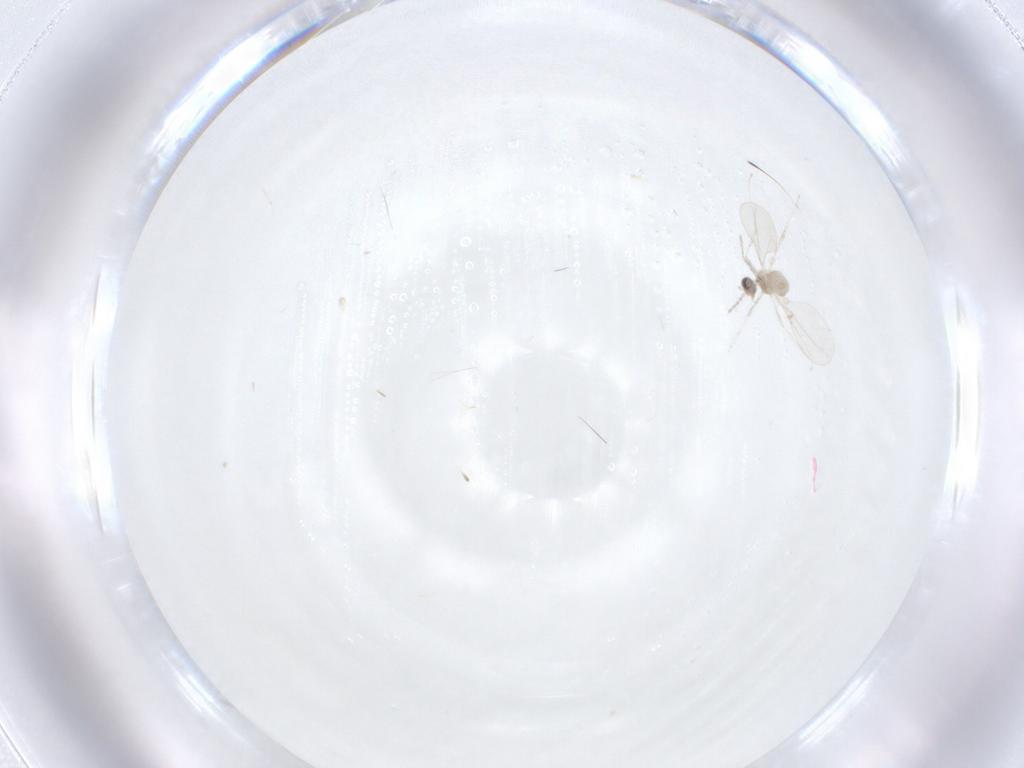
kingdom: Animalia
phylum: Arthropoda
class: Insecta
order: Diptera
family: Cecidomyiidae
